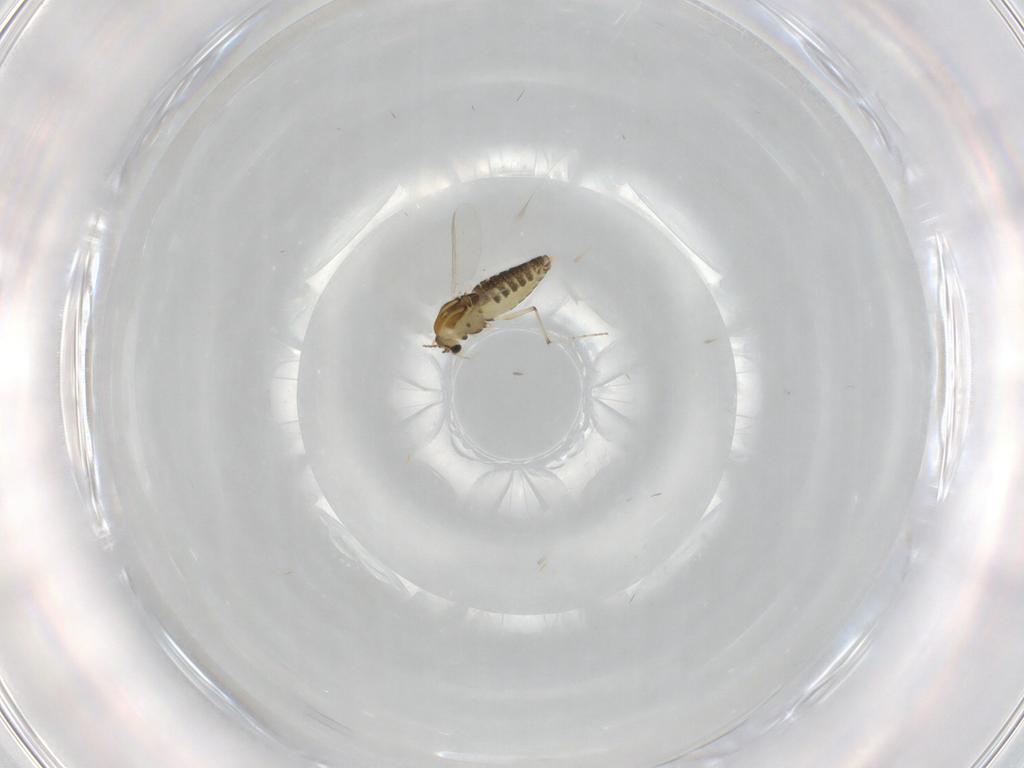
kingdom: Animalia
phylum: Arthropoda
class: Insecta
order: Diptera
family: Chironomidae
